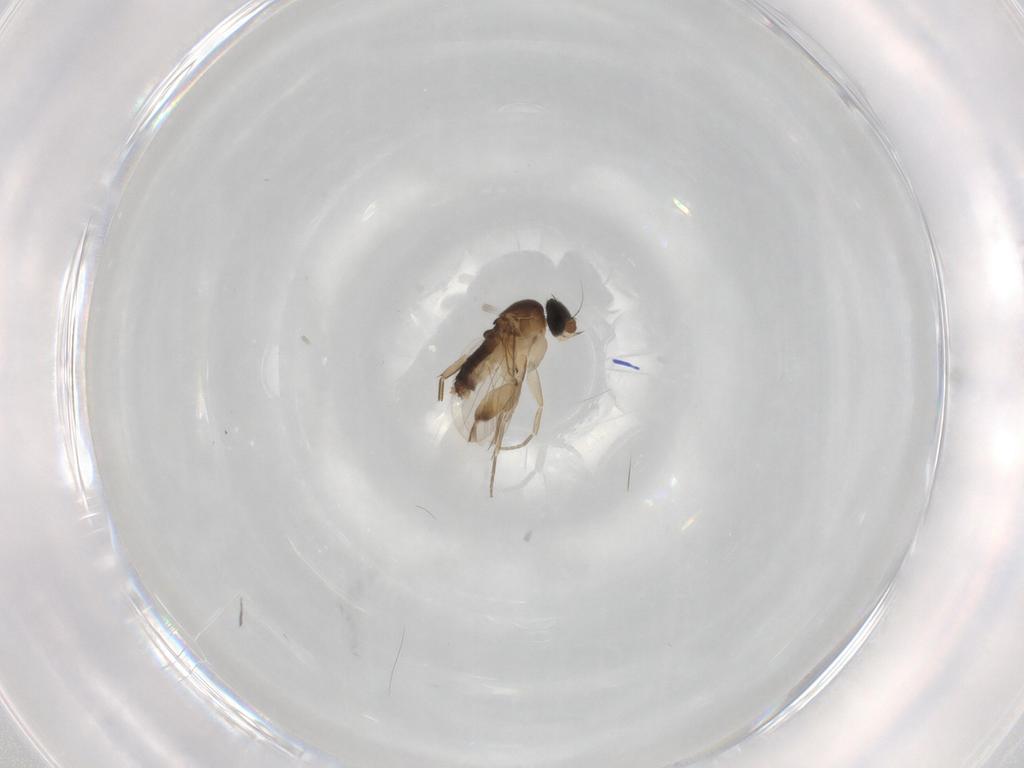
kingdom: Animalia
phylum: Arthropoda
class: Insecta
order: Diptera
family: Phoridae
